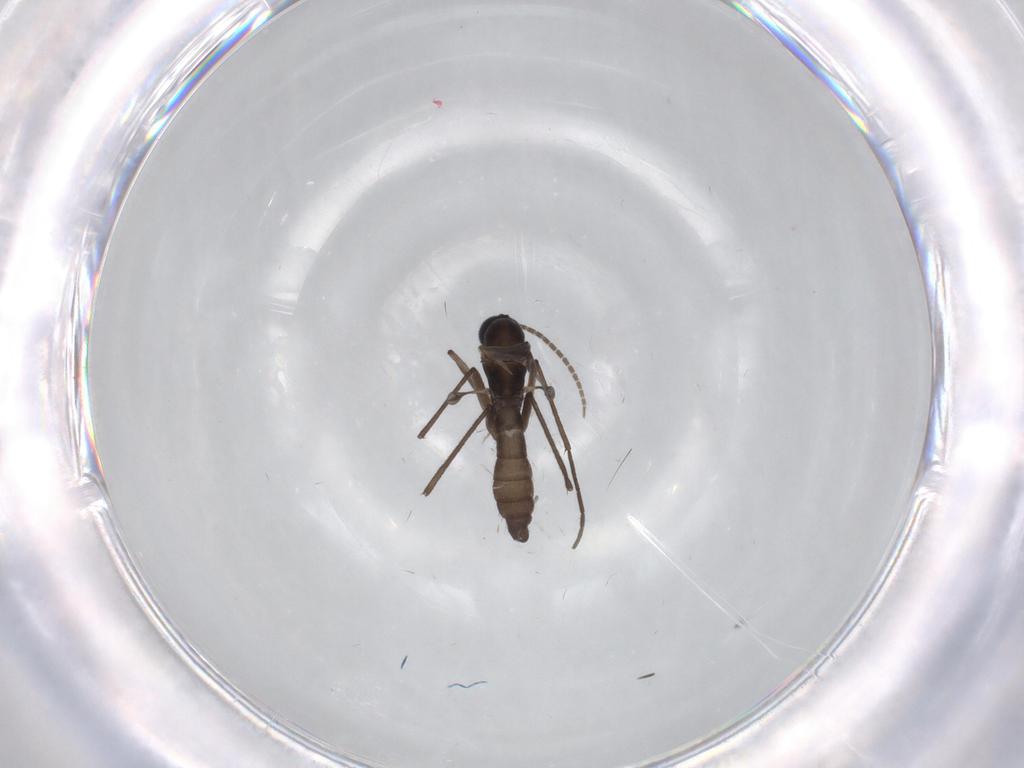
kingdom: Animalia
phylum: Arthropoda
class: Insecta
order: Diptera
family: Sciaridae
